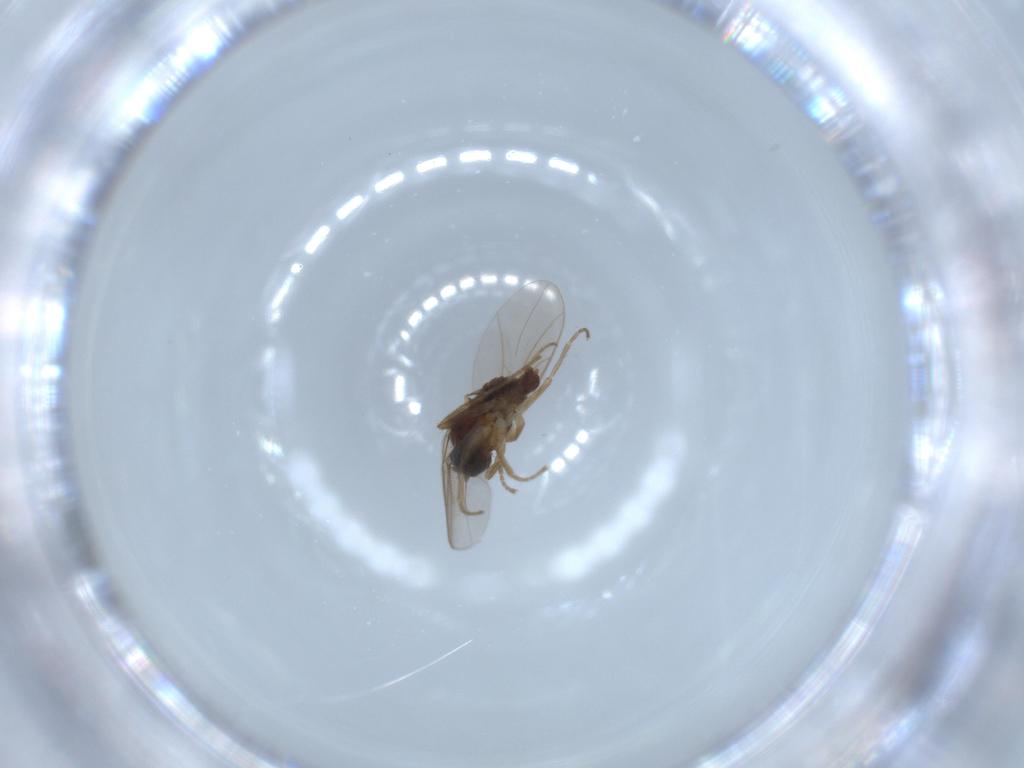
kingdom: Animalia
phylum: Arthropoda
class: Insecta
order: Diptera
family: Hybotidae
